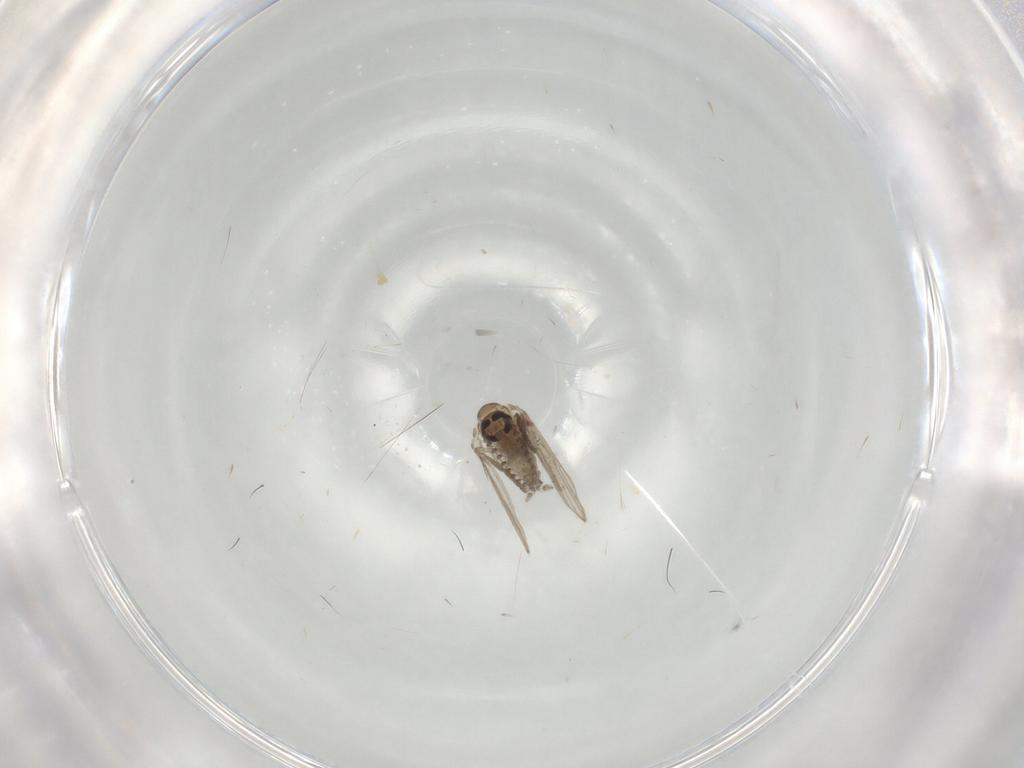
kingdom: Animalia
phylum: Arthropoda
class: Insecta
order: Diptera
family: Psychodidae
